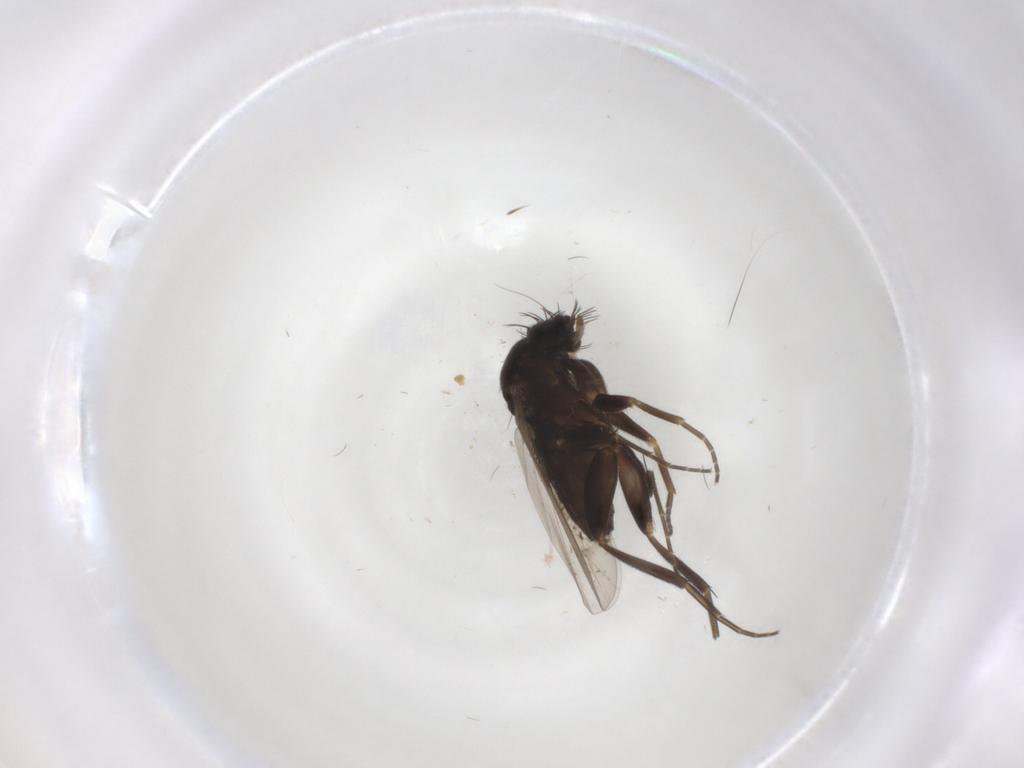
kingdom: Animalia
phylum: Arthropoda
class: Insecta
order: Diptera
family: Phoridae
